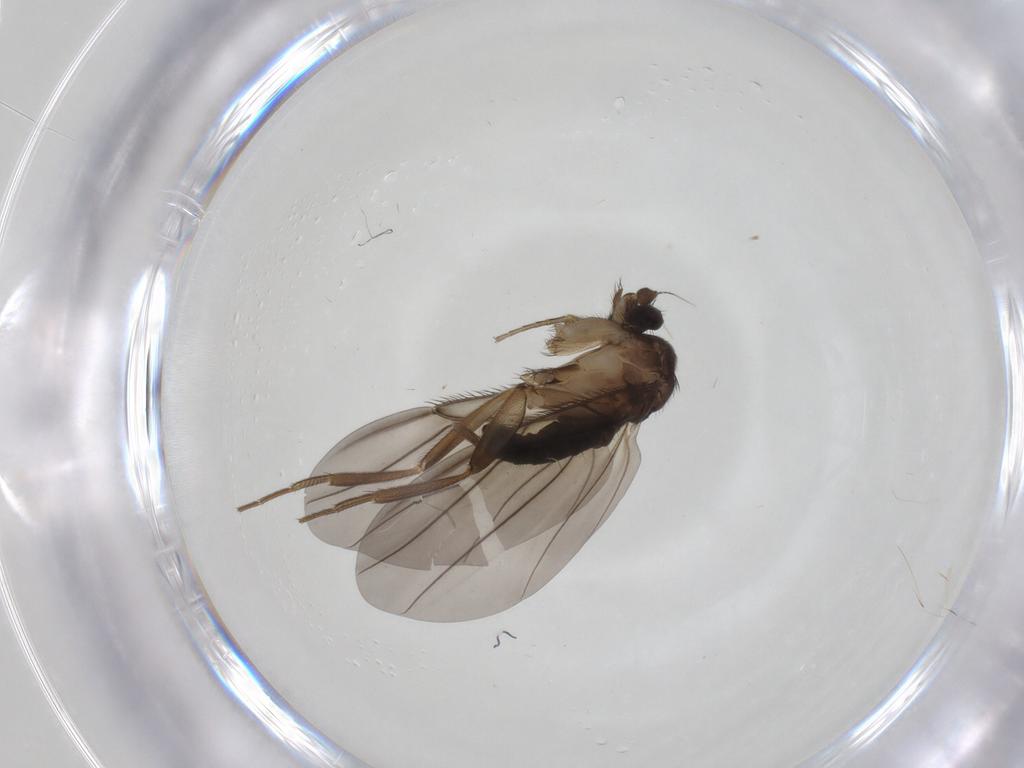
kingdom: Animalia
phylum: Arthropoda
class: Insecta
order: Diptera
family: Phoridae
